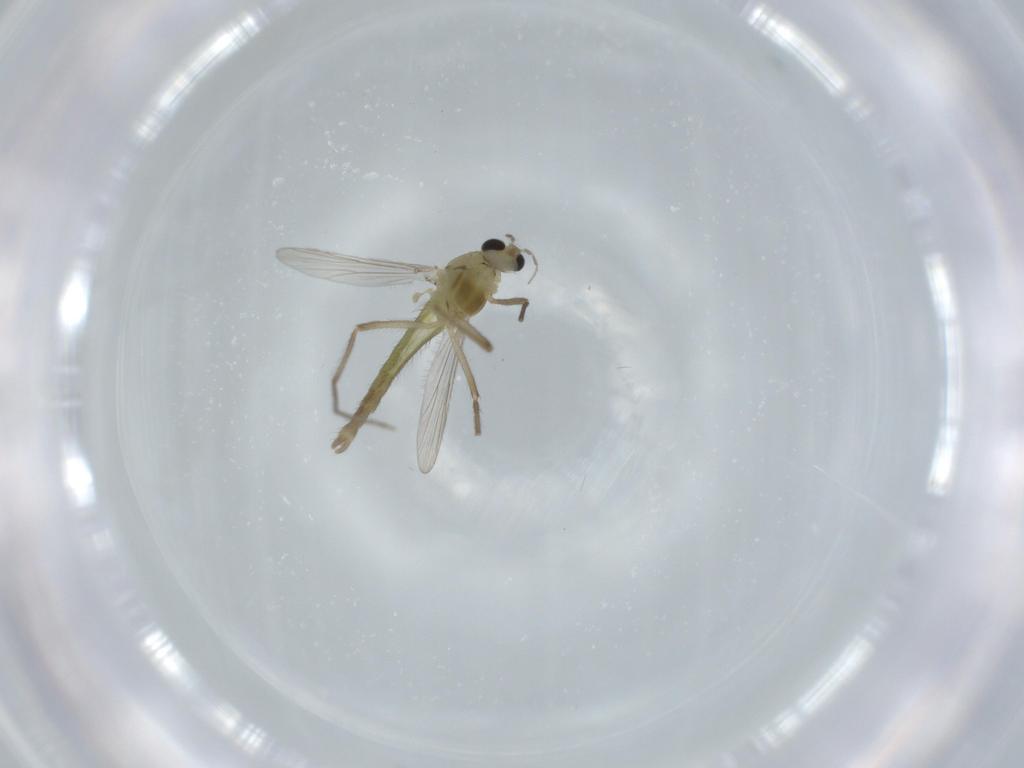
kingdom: Animalia
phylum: Arthropoda
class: Insecta
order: Diptera
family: Chironomidae
